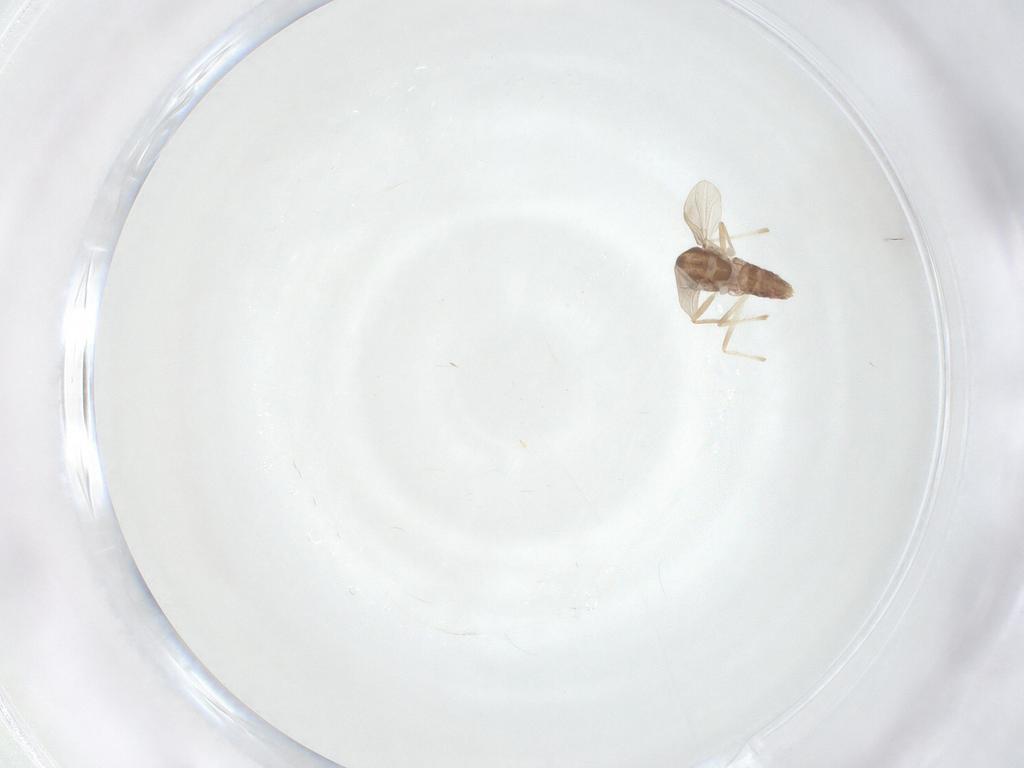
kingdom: Animalia
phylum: Arthropoda
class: Insecta
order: Diptera
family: Chironomidae
